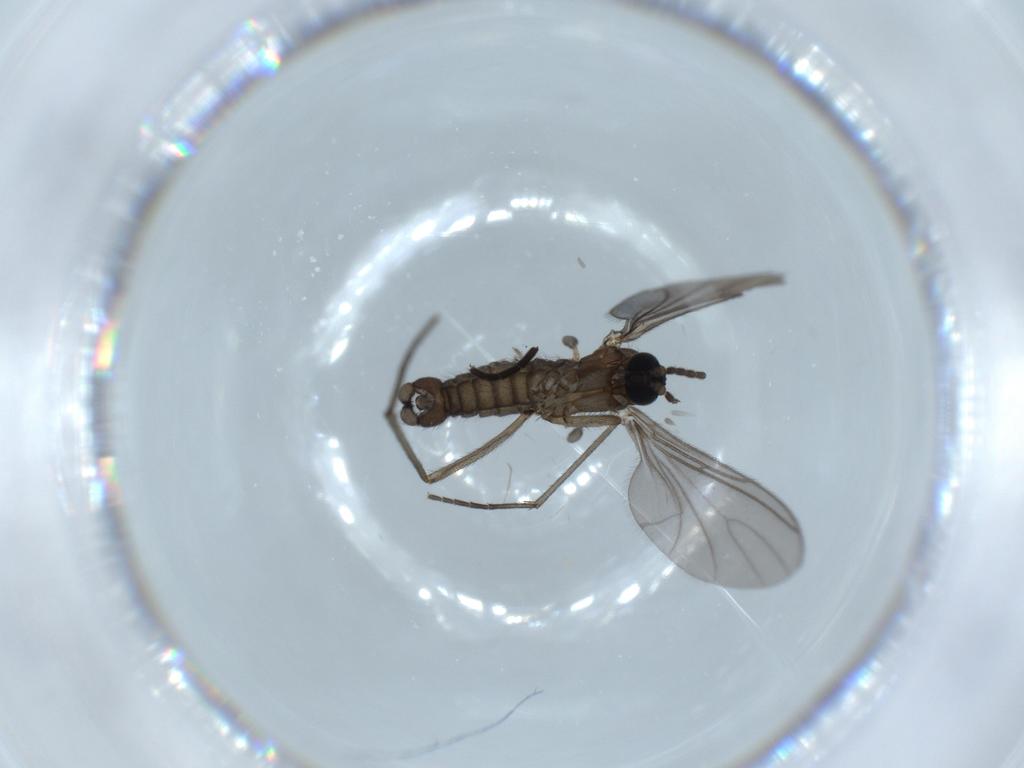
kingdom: Animalia
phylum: Arthropoda
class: Insecta
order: Diptera
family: Sciaridae
